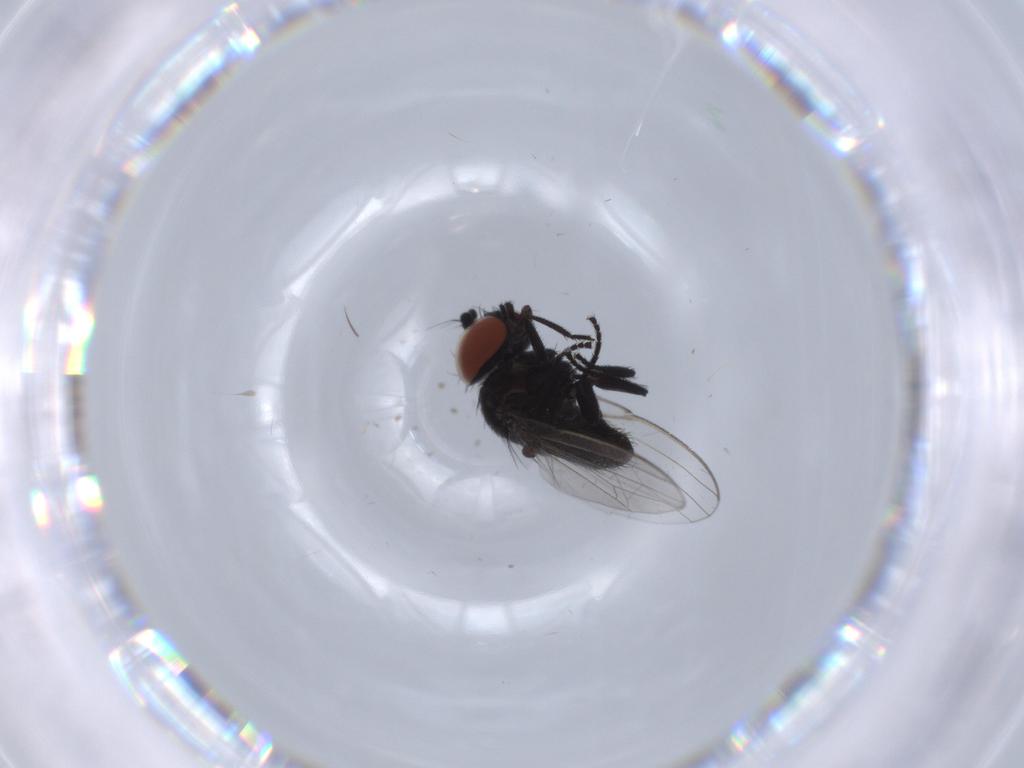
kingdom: Animalia
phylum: Arthropoda
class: Insecta
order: Diptera
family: Milichiidae
